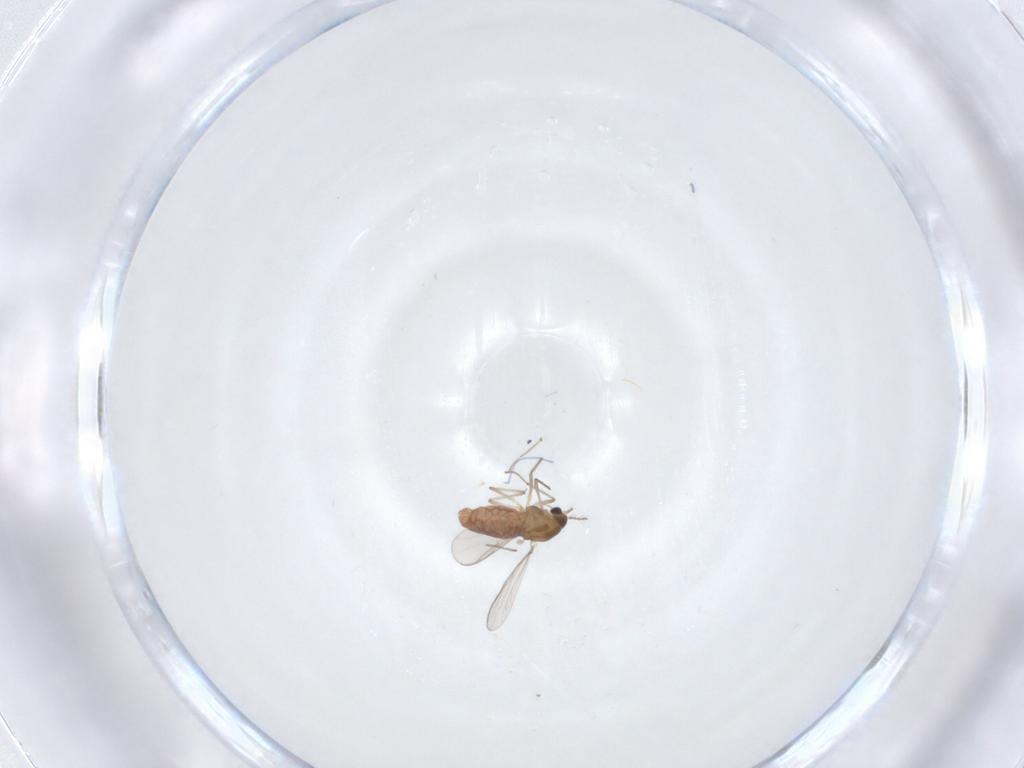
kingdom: Animalia
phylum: Arthropoda
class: Insecta
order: Diptera
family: Chironomidae
